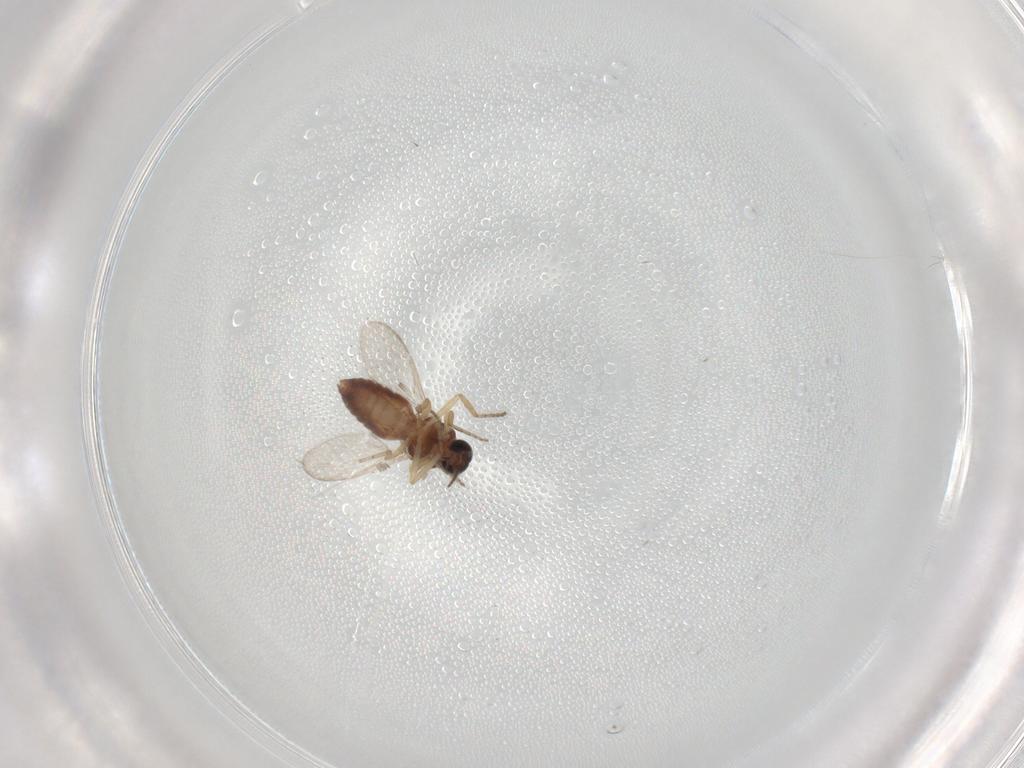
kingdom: Animalia
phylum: Arthropoda
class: Insecta
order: Diptera
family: Ceratopogonidae
